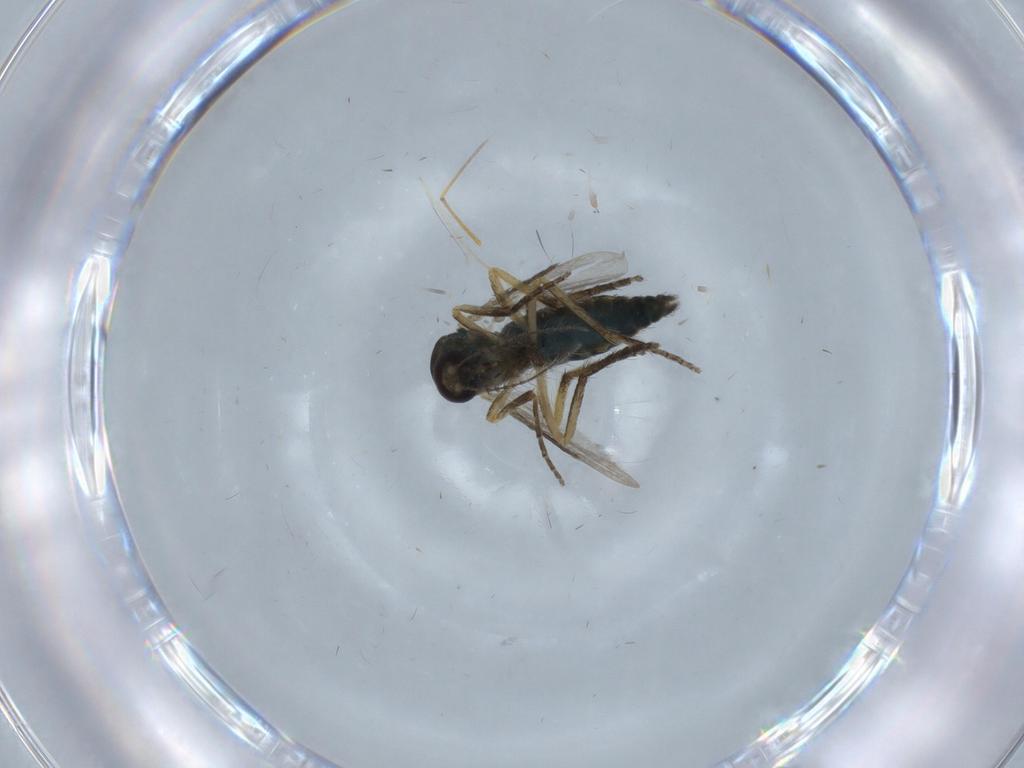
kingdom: Animalia
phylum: Arthropoda
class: Insecta
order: Diptera
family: Ceratopogonidae
